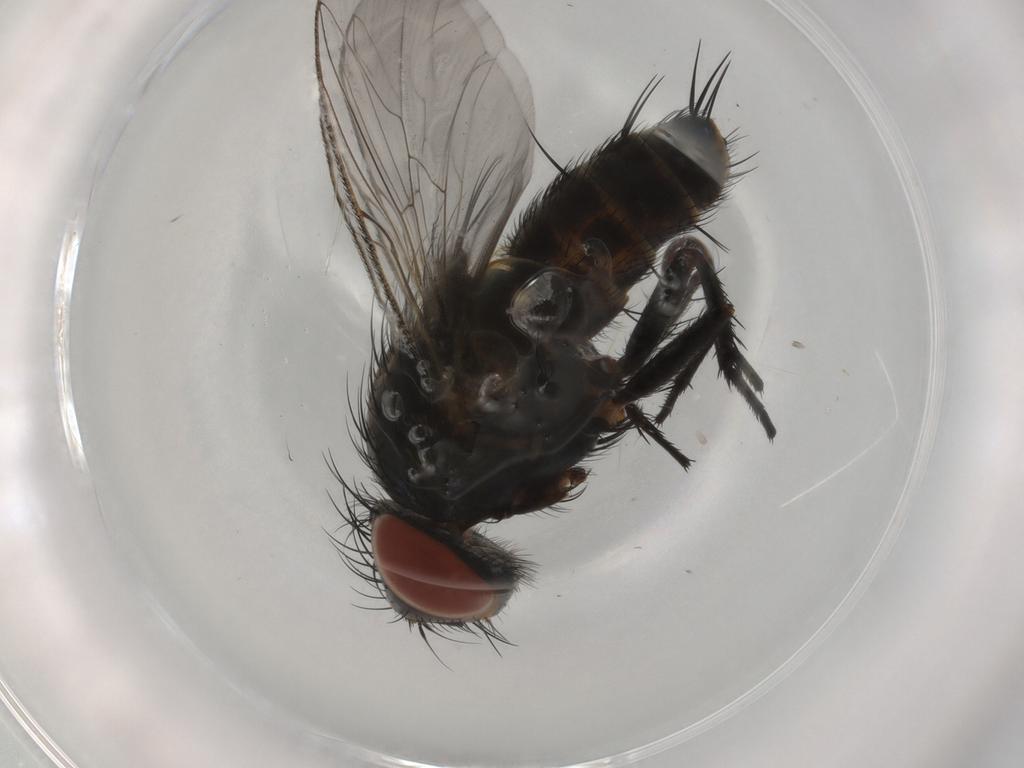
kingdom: Animalia
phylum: Arthropoda
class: Insecta
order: Diptera
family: Sarcophagidae
